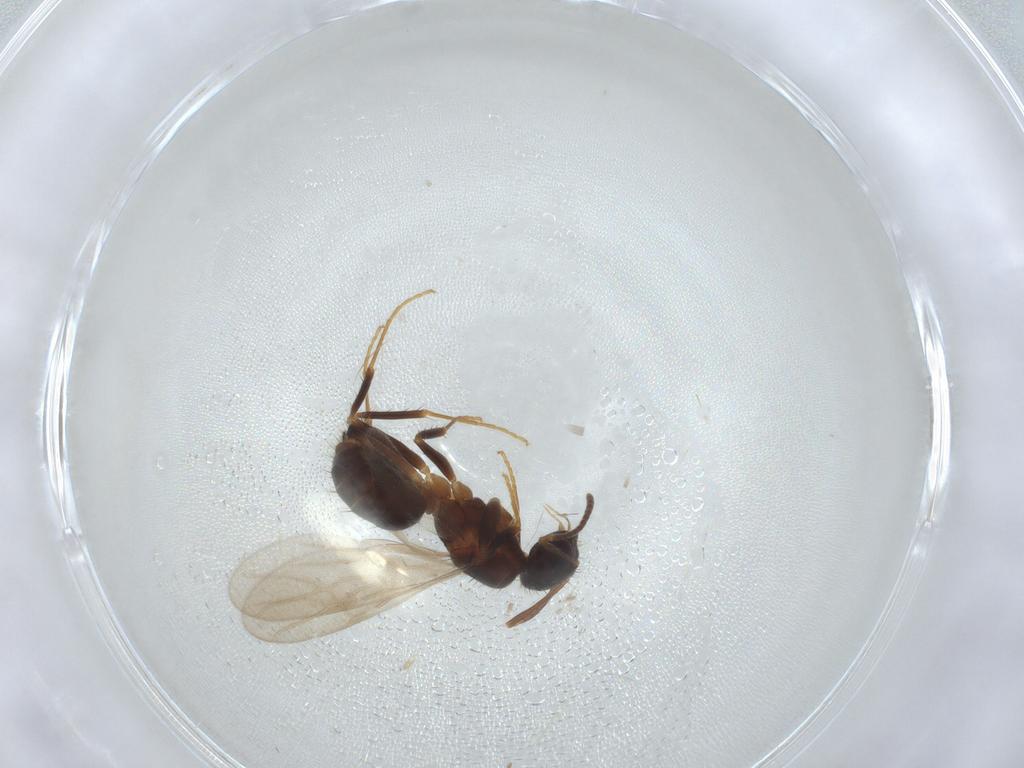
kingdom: Animalia
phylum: Arthropoda
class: Insecta
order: Hymenoptera
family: Formicidae
